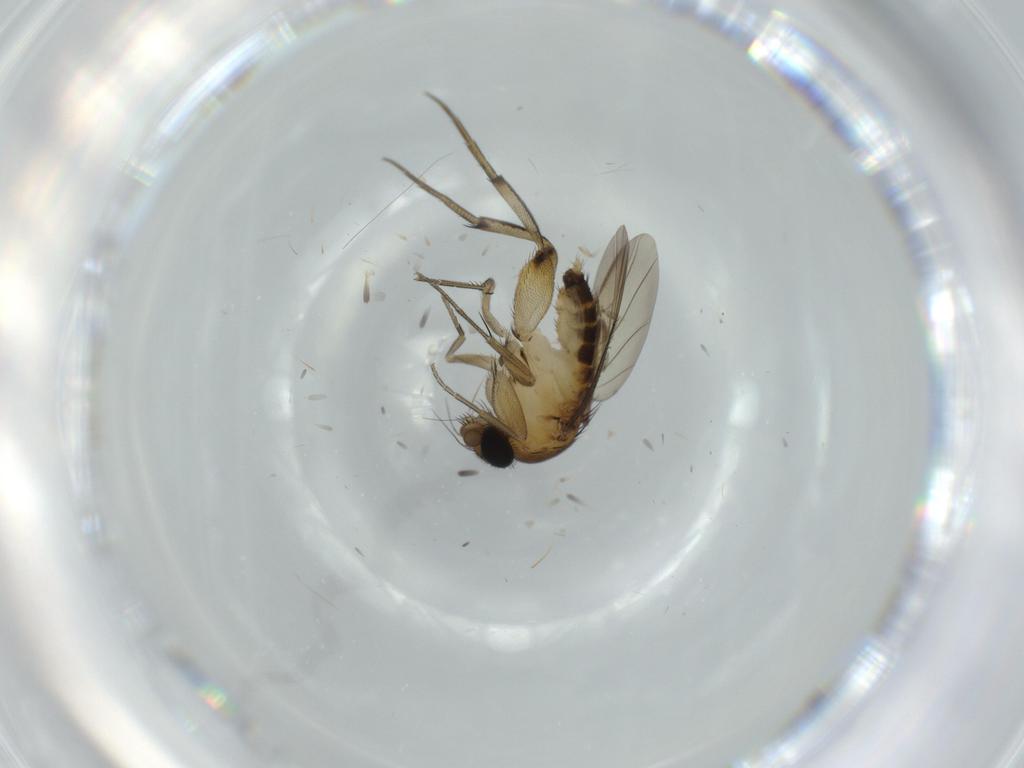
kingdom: Animalia
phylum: Arthropoda
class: Insecta
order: Diptera
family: Phoridae
